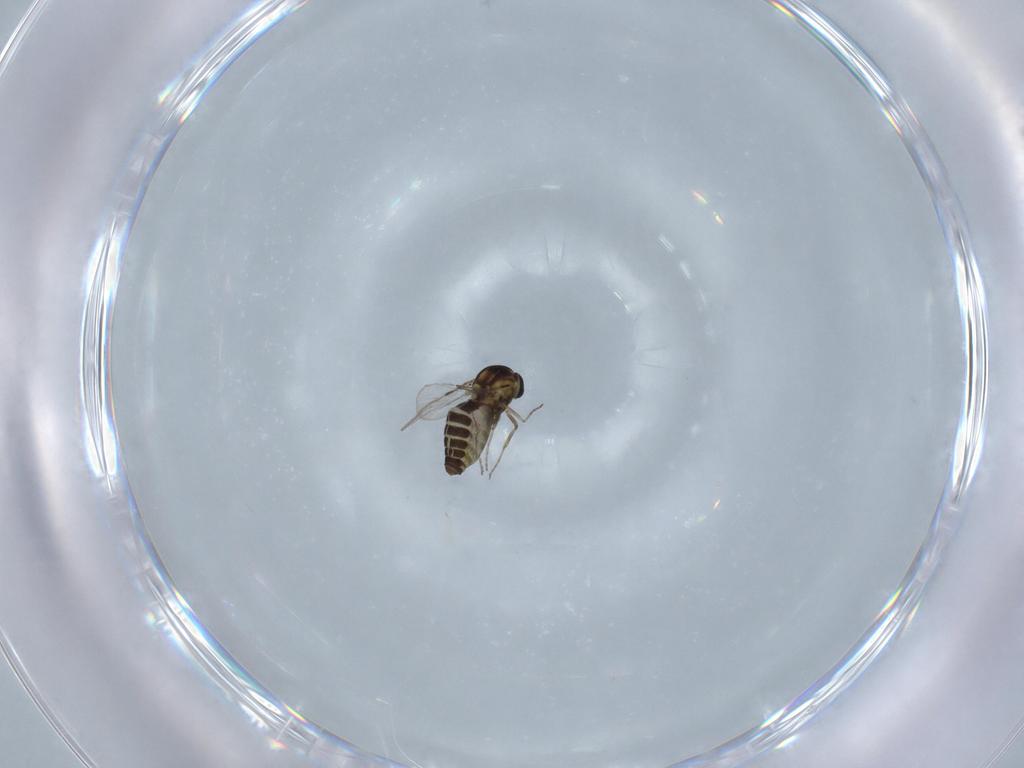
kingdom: Animalia
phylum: Arthropoda
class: Insecta
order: Diptera
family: Ceratopogonidae
